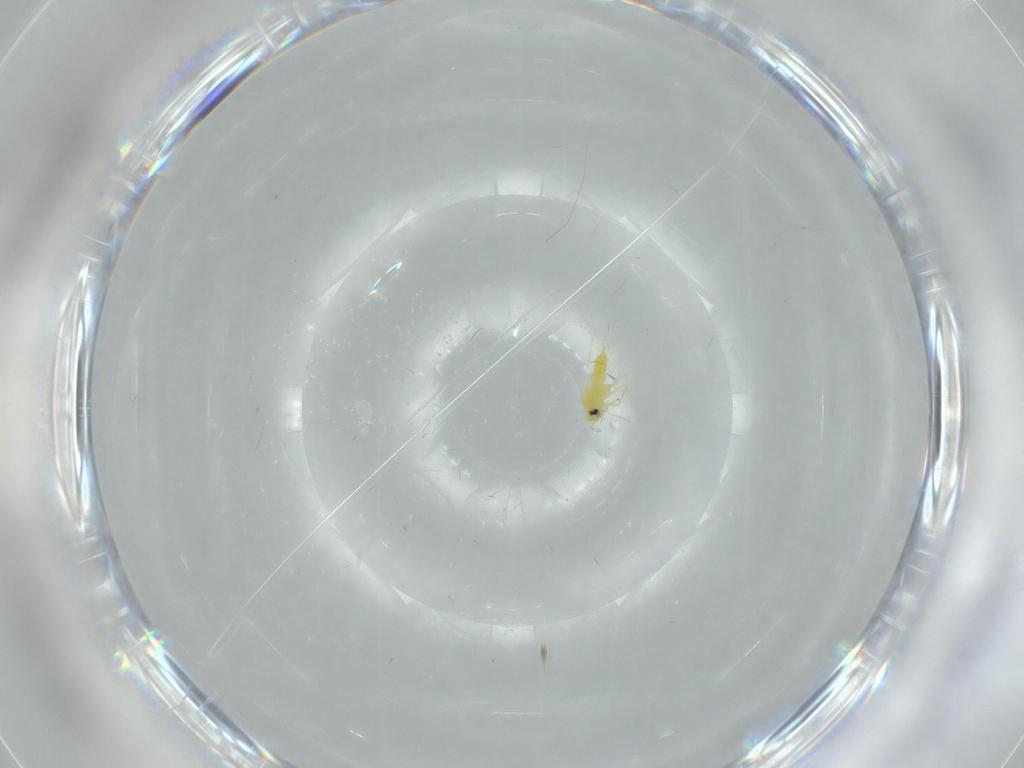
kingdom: Animalia
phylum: Arthropoda
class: Insecta
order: Hemiptera
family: Aleyrodidae
